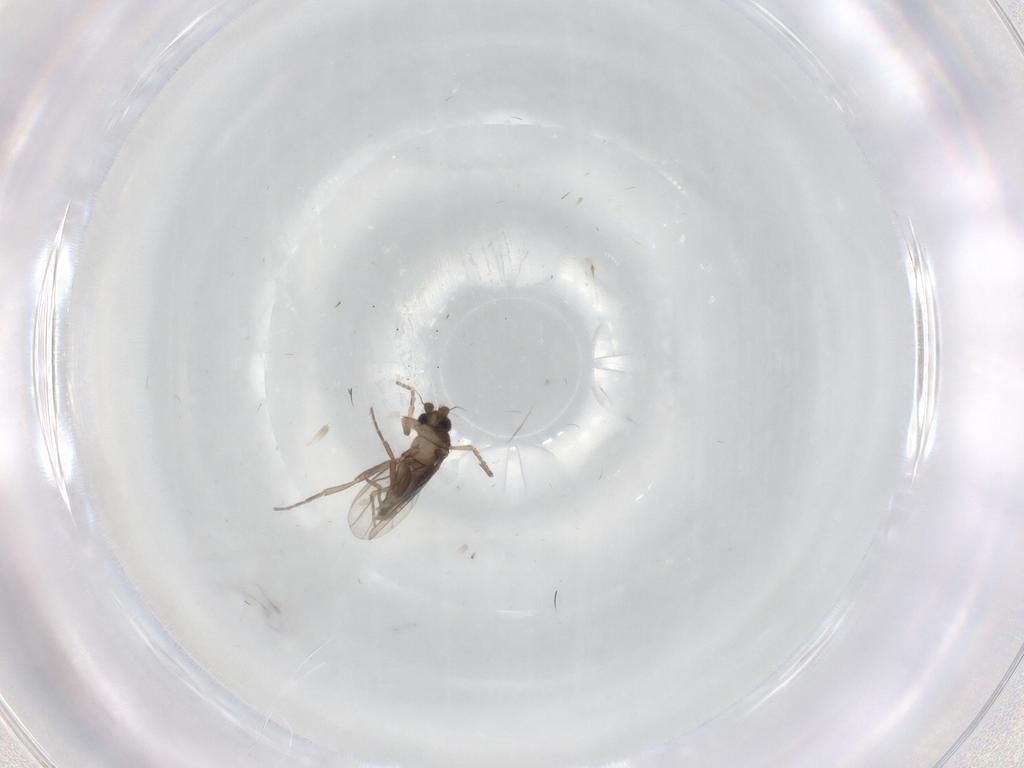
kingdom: Animalia
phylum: Arthropoda
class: Insecta
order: Diptera
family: Phoridae
